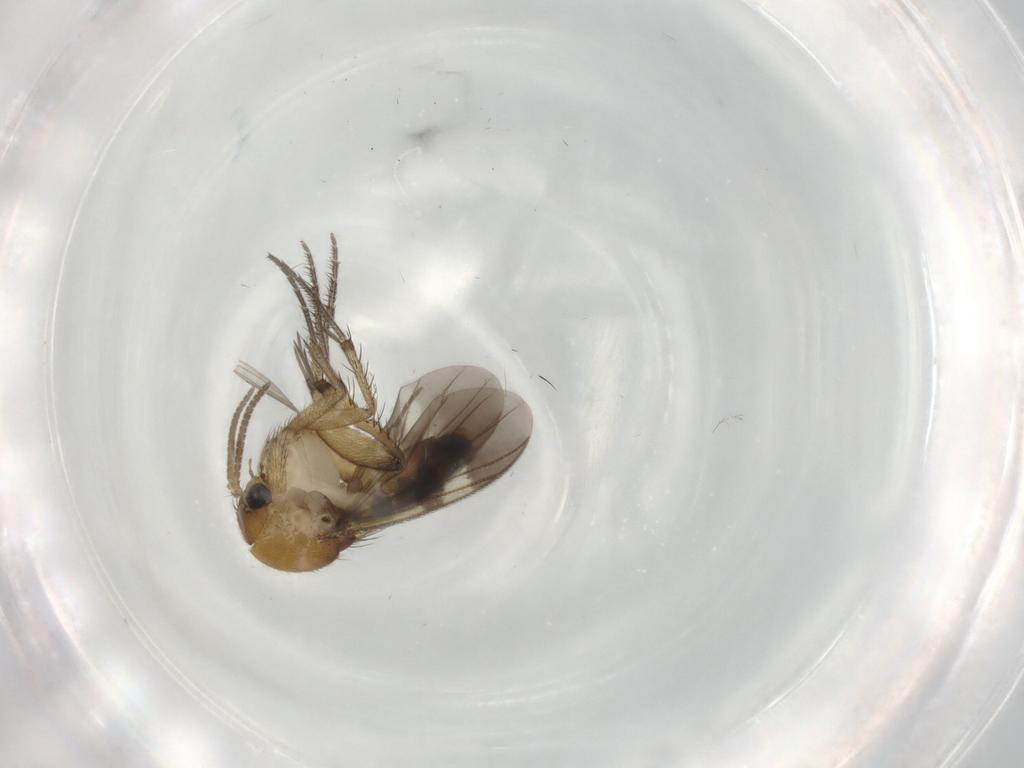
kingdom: Animalia
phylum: Arthropoda
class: Insecta
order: Diptera
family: Mycetophilidae
